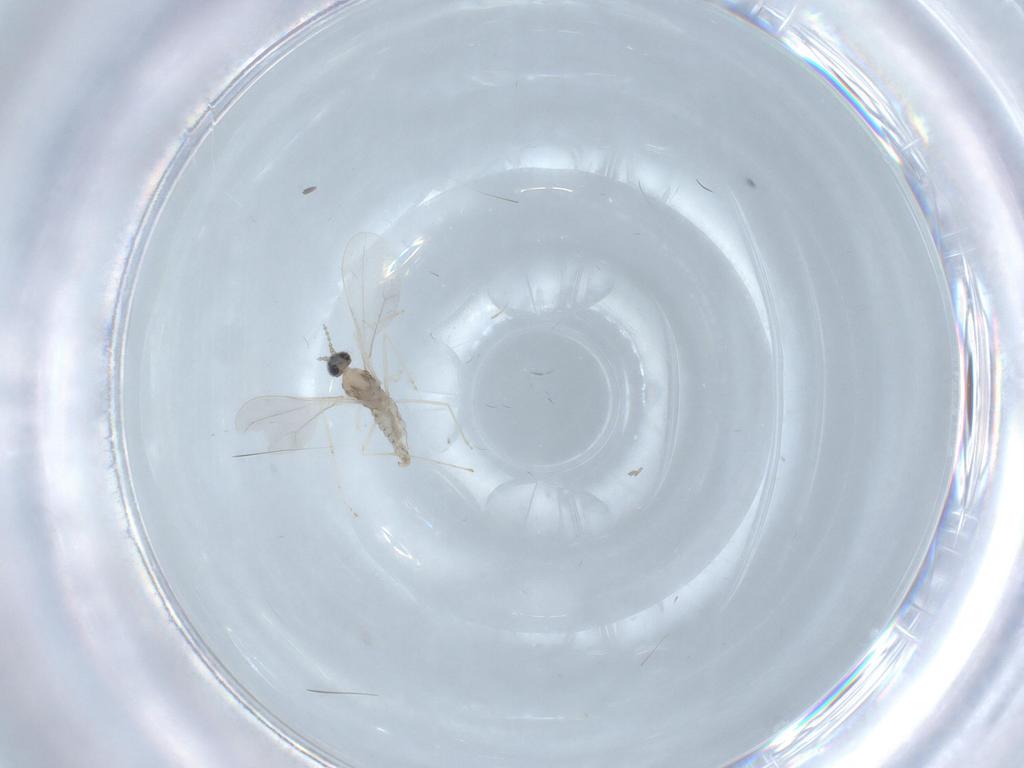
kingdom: Animalia
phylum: Arthropoda
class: Insecta
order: Diptera
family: Cecidomyiidae
